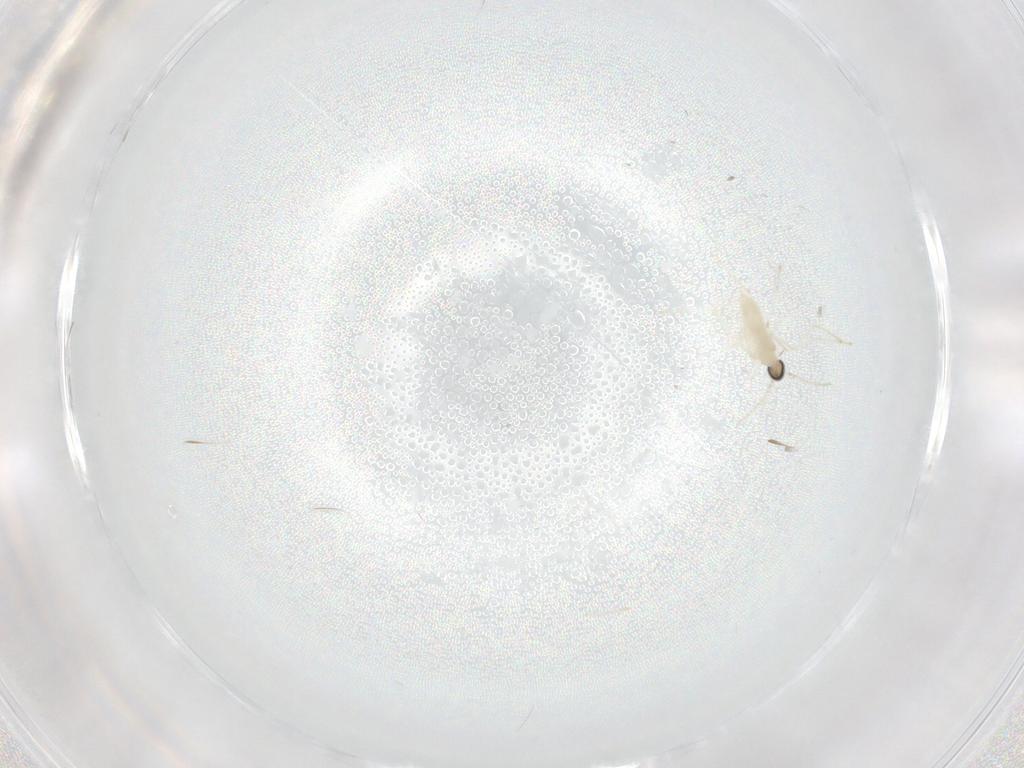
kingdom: Animalia
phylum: Arthropoda
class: Insecta
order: Diptera
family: Cecidomyiidae
